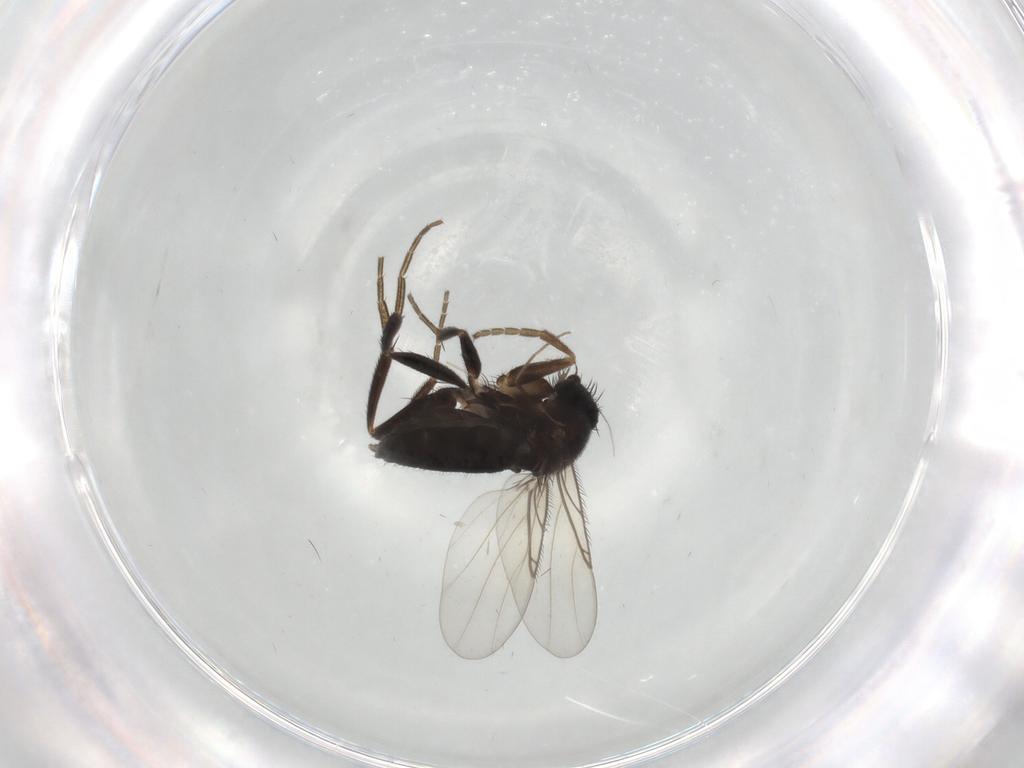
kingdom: Animalia
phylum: Arthropoda
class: Insecta
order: Diptera
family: Phoridae
